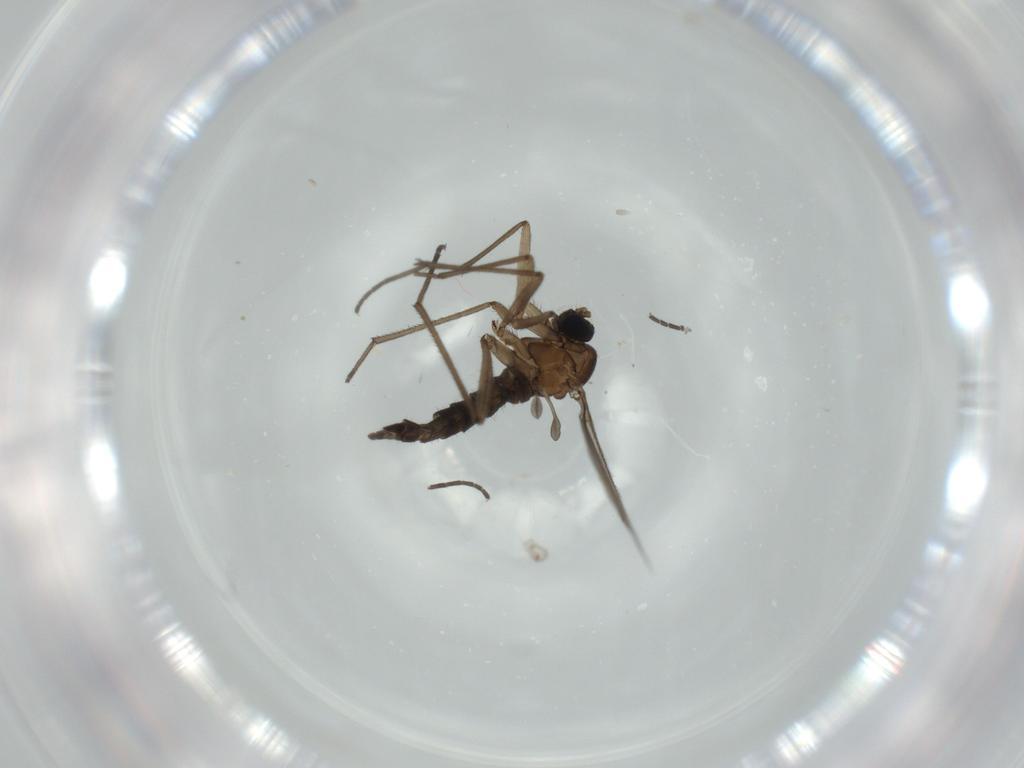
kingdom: Animalia
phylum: Arthropoda
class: Insecta
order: Diptera
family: Sciaridae
